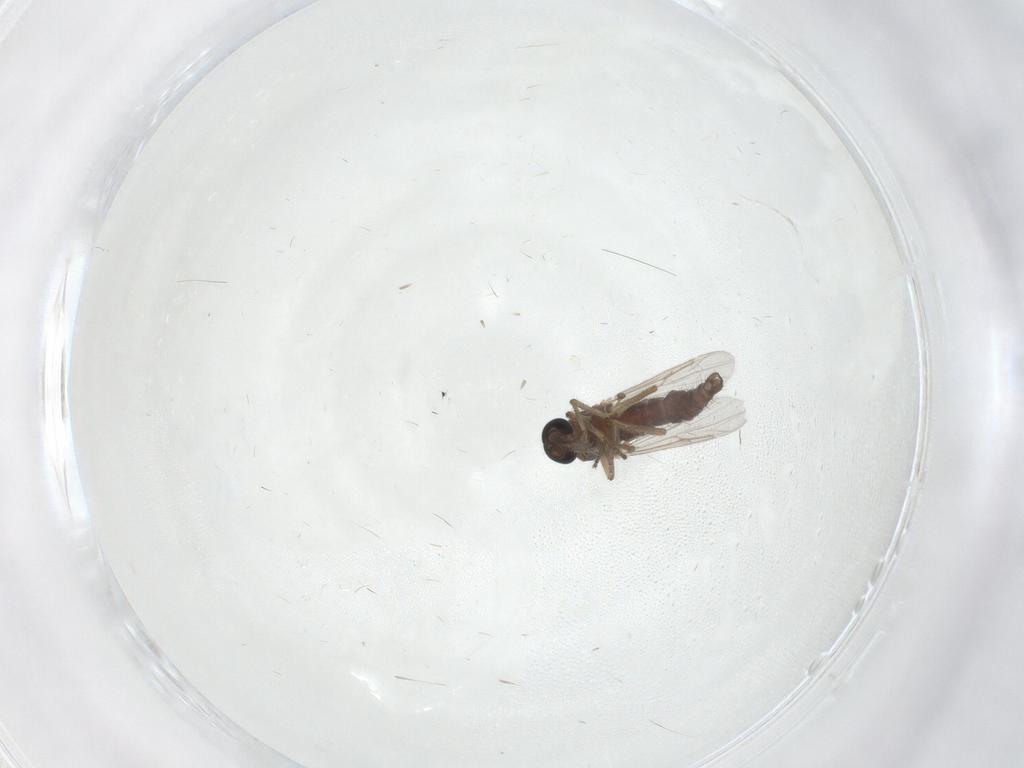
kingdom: Animalia
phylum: Arthropoda
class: Insecta
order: Diptera
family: Ceratopogonidae
